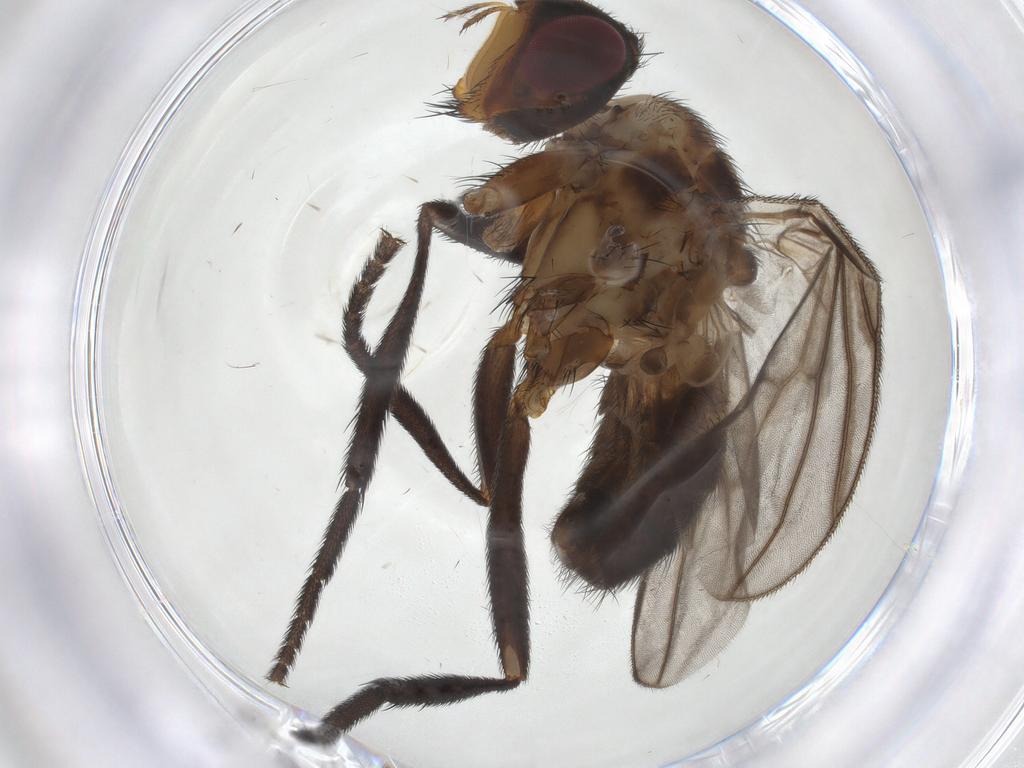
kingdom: Animalia
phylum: Arthropoda
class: Insecta
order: Diptera
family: Calliphoridae
